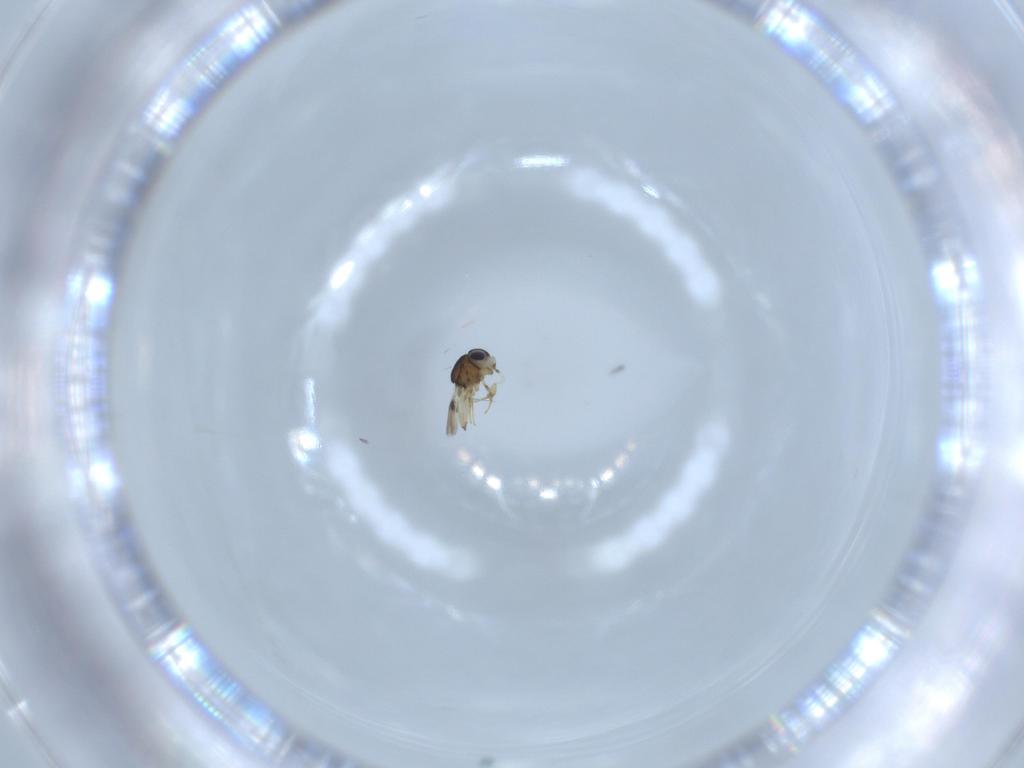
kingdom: Animalia
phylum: Arthropoda
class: Insecta
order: Hymenoptera
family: Scelionidae
